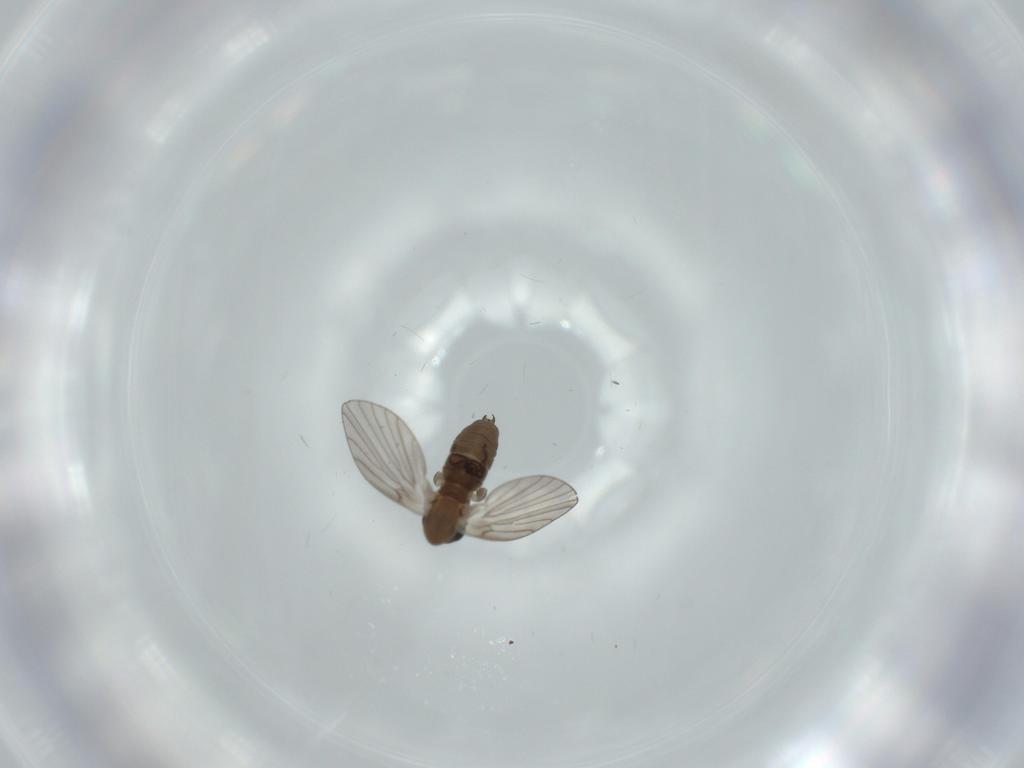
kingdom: Animalia
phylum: Arthropoda
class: Insecta
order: Diptera
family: Psychodidae
